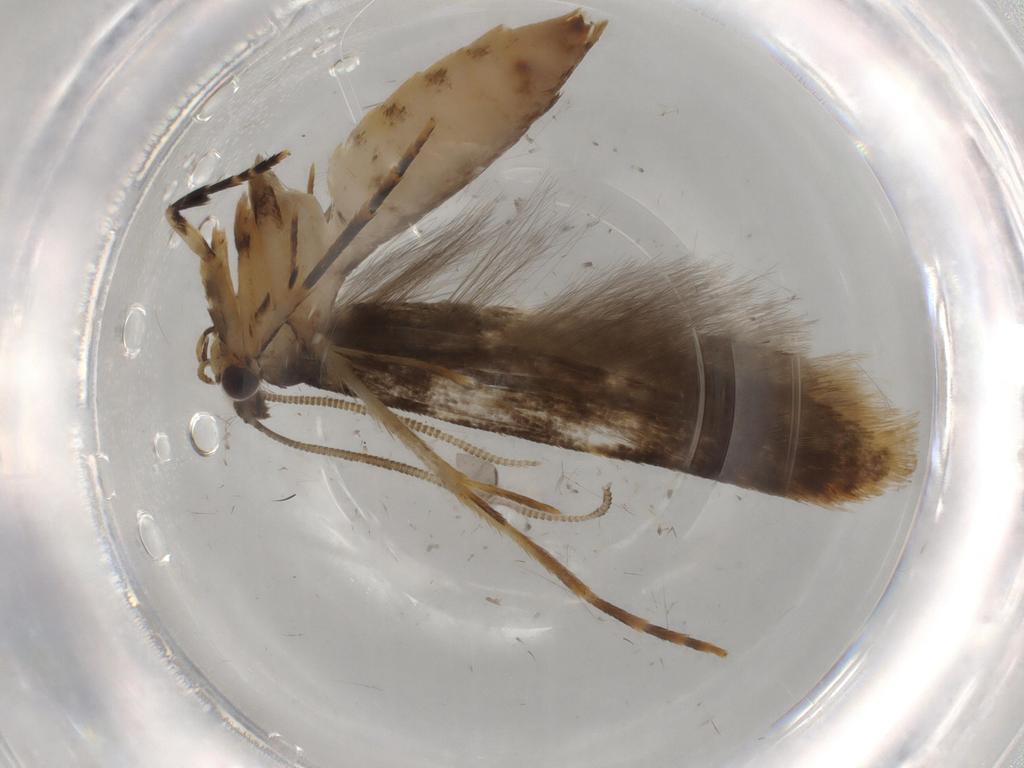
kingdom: Animalia
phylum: Arthropoda
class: Insecta
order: Lepidoptera
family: Tineidae
